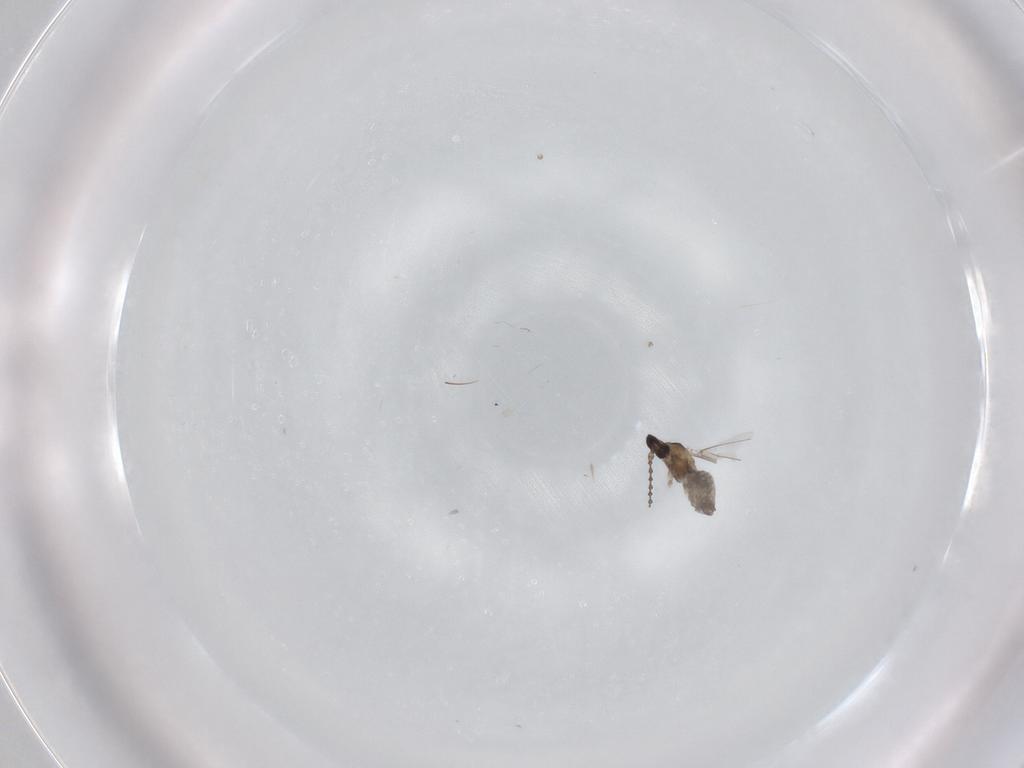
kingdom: Animalia
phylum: Arthropoda
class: Insecta
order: Diptera
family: Cecidomyiidae
